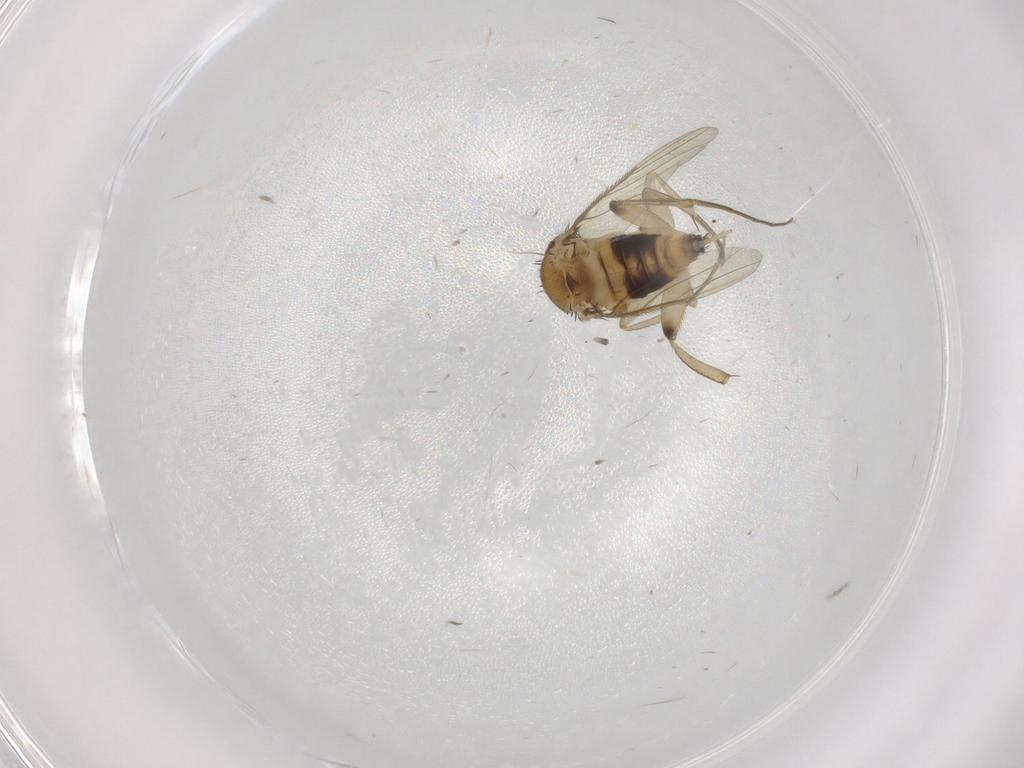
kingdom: Animalia
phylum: Arthropoda
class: Insecta
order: Diptera
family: Phoridae
